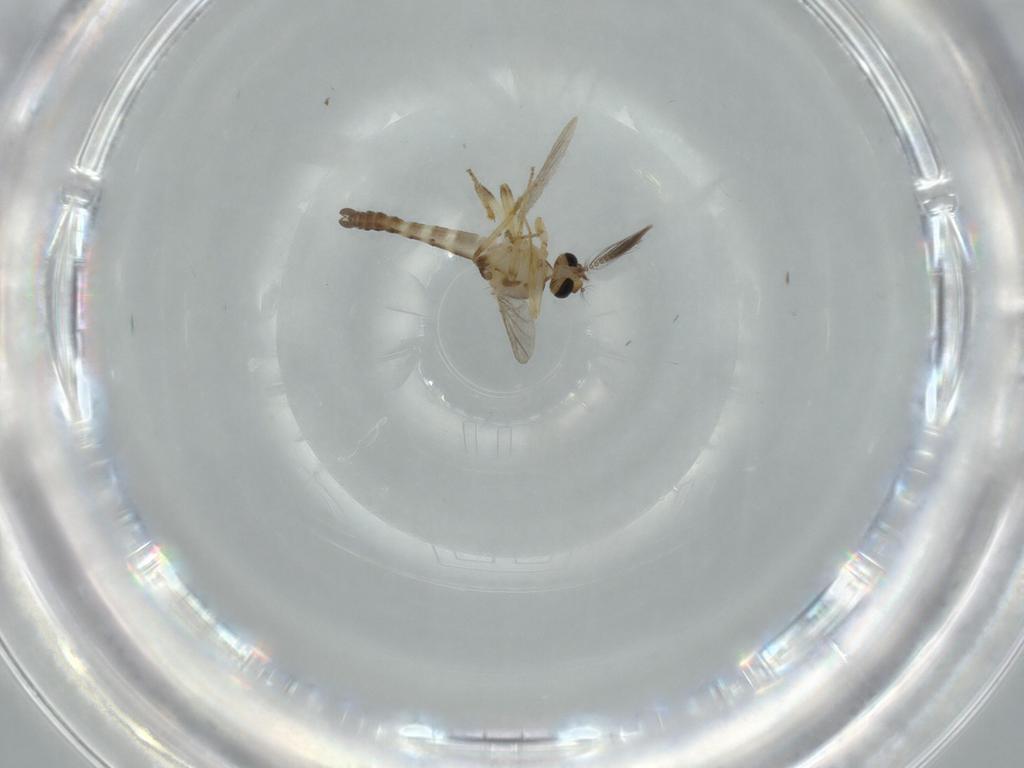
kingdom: Animalia
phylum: Arthropoda
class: Insecta
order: Diptera
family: Ceratopogonidae
